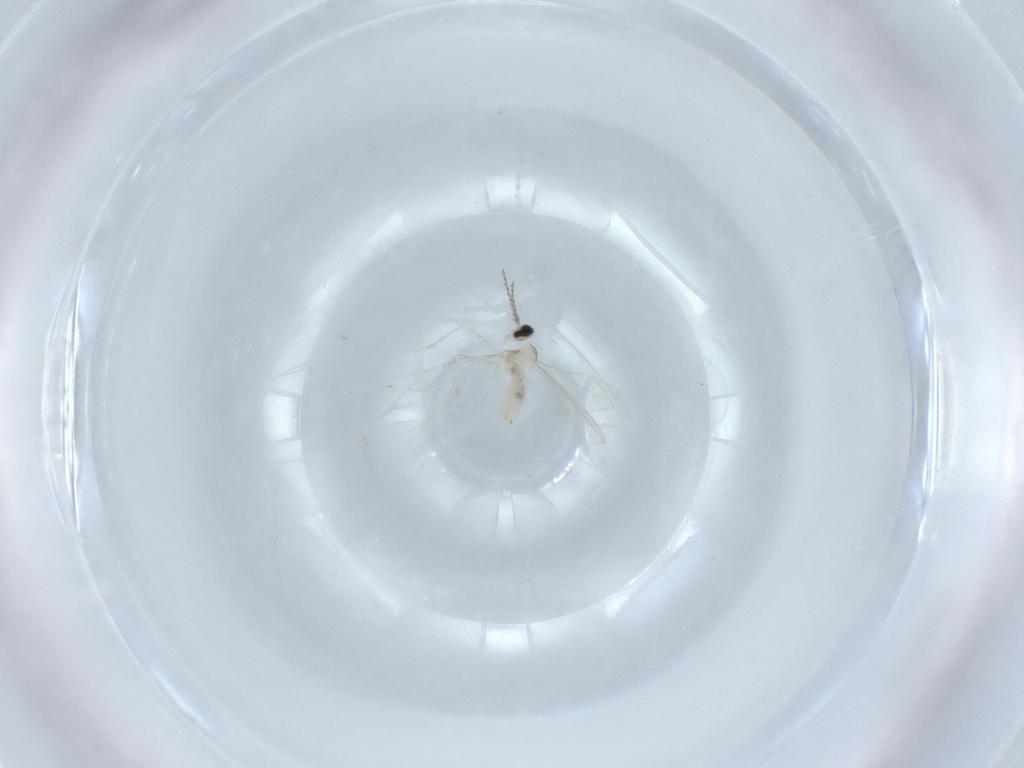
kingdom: Animalia
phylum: Arthropoda
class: Insecta
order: Diptera
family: Cecidomyiidae
